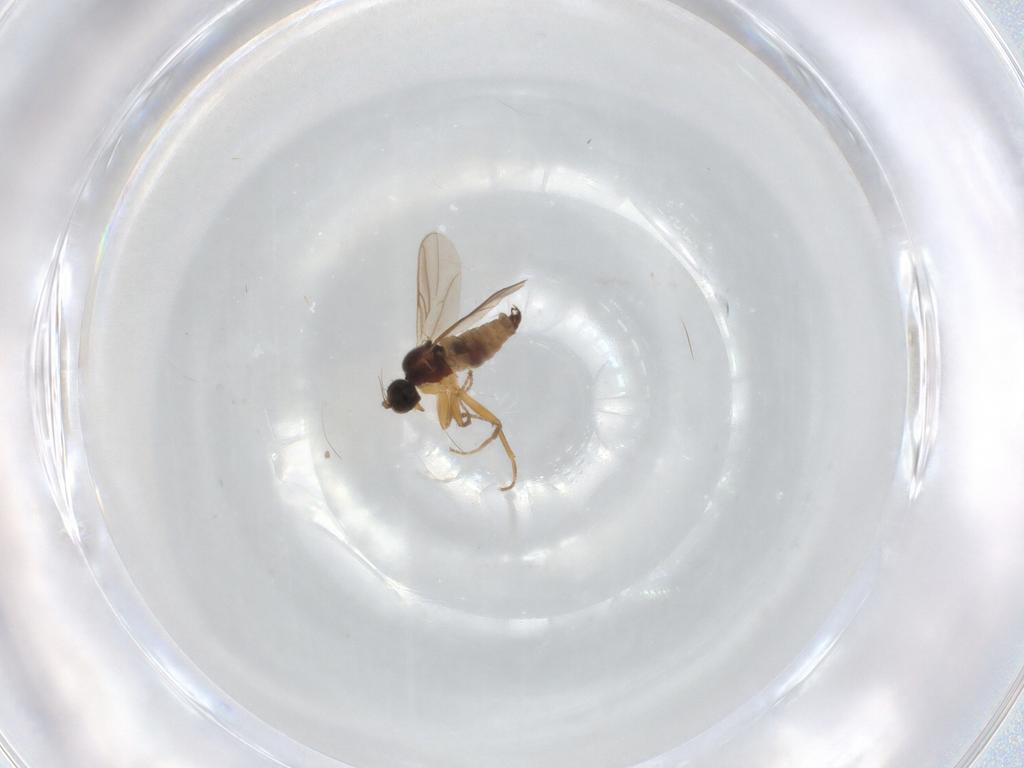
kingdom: Animalia
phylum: Arthropoda
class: Insecta
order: Diptera
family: Hybotidae
